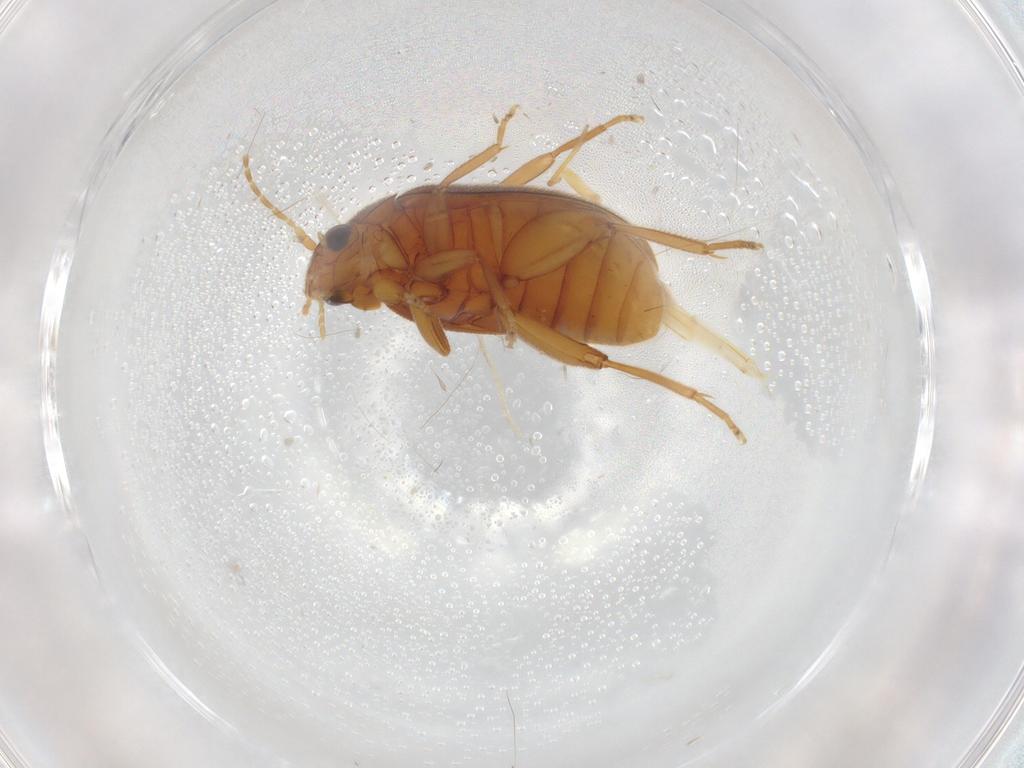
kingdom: Animalia
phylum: Arthropoda
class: Insecta
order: Coleoptera
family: Scirtidae
